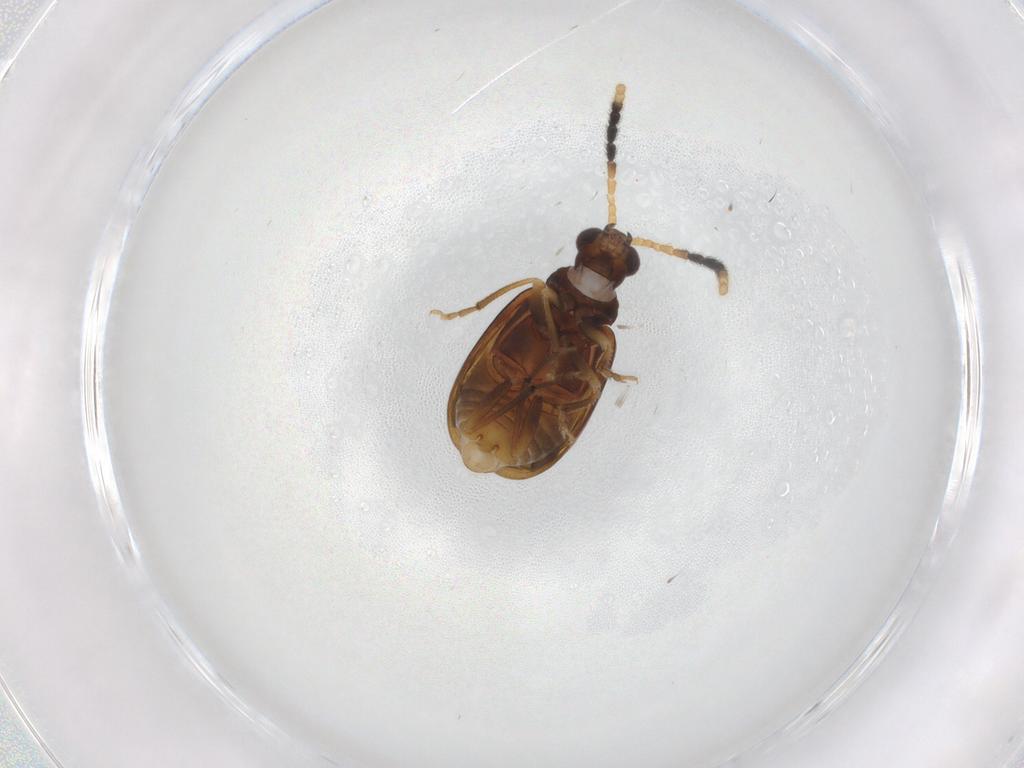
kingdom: Animalia
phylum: Arthropoda
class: Insecta
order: Coleoptera
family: Chrysomelidae
